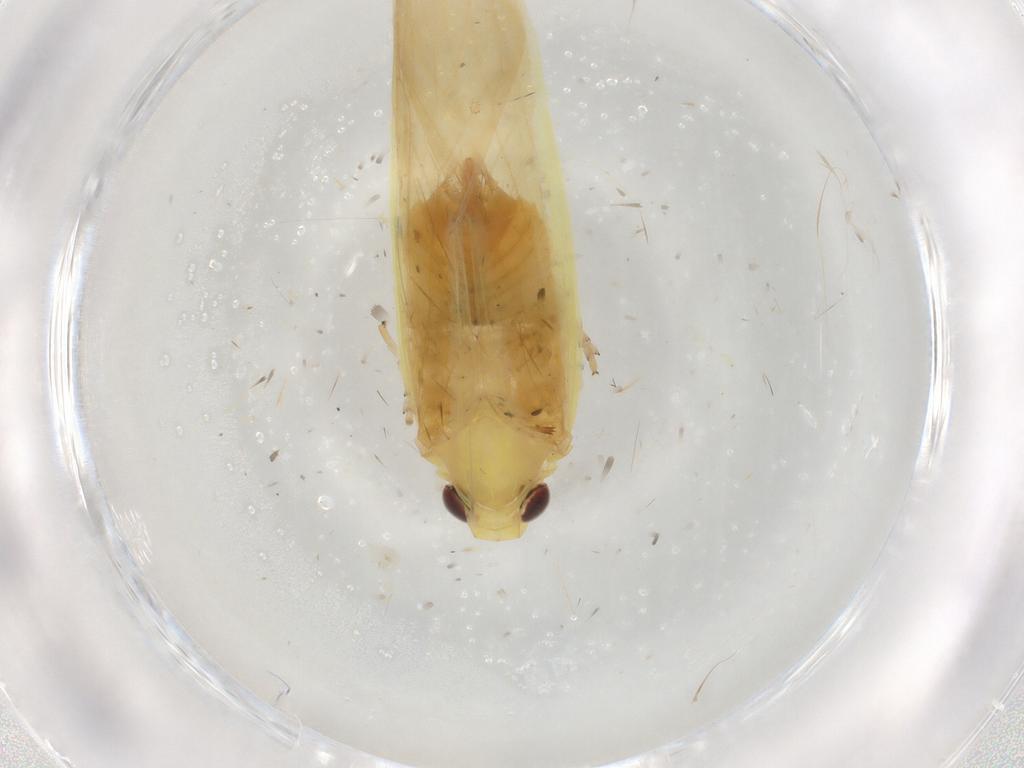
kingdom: Animalia
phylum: Arthropoda
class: Insecta
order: Hemiptera
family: Achilidae
